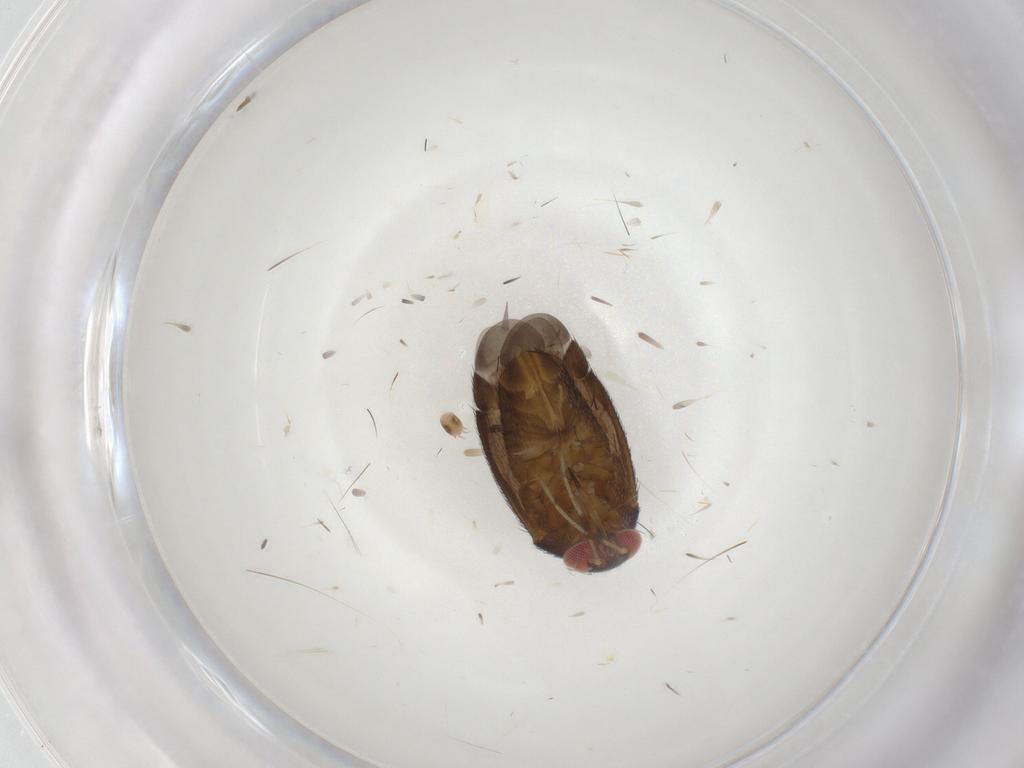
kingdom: Animalia
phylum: Arthropoda
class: Insecta
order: Hemiptera
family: Miridae
